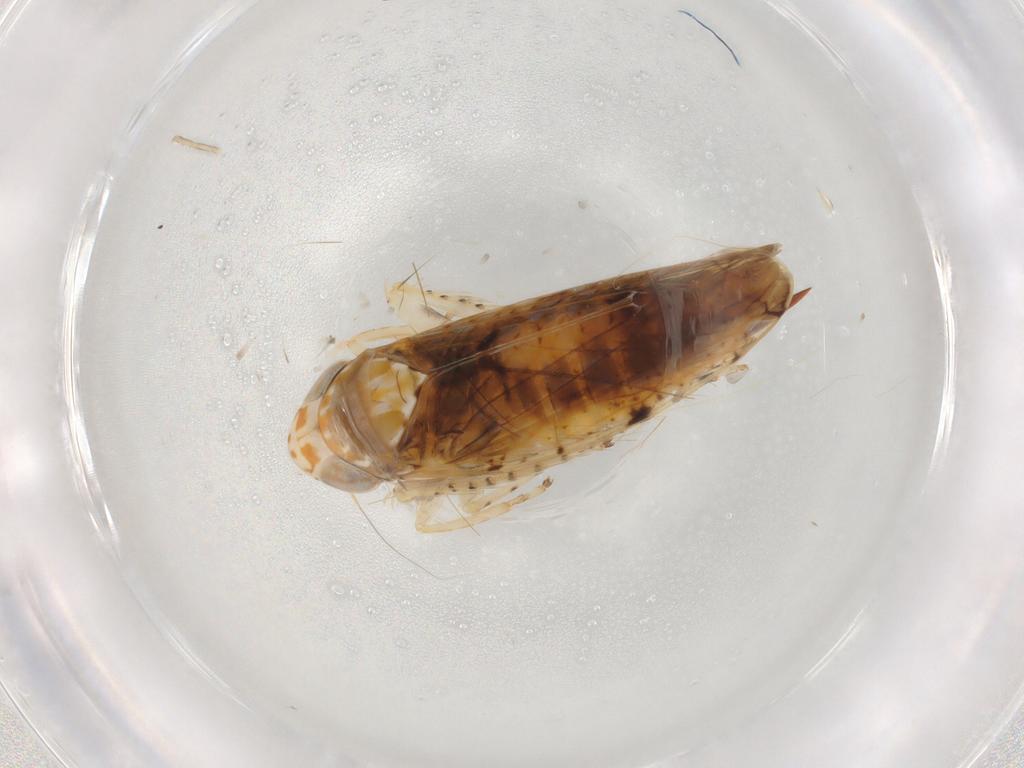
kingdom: Animalia
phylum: Arthropoda
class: Insecta
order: Hemiptera
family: Cicadellidae
